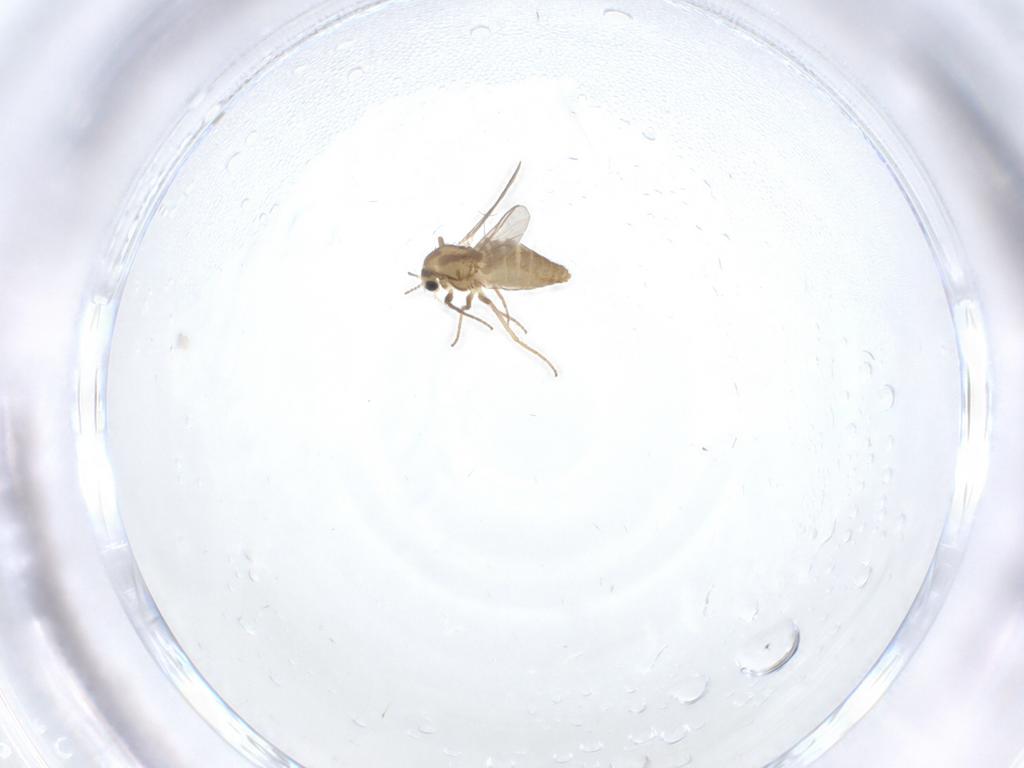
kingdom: Animalia
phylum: Arthropoda
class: Insecta
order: Diptera
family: Chironomidae
